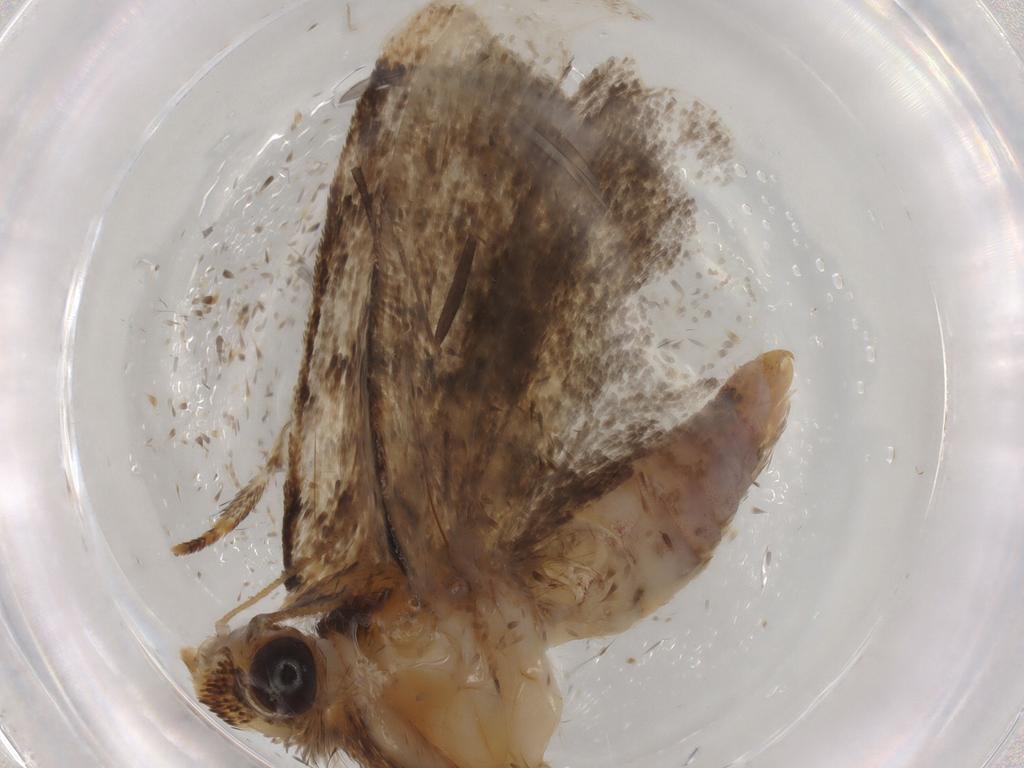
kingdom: Animalia
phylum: Arthropoda
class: Insecta
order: Lepidoptera
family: Tineidae
